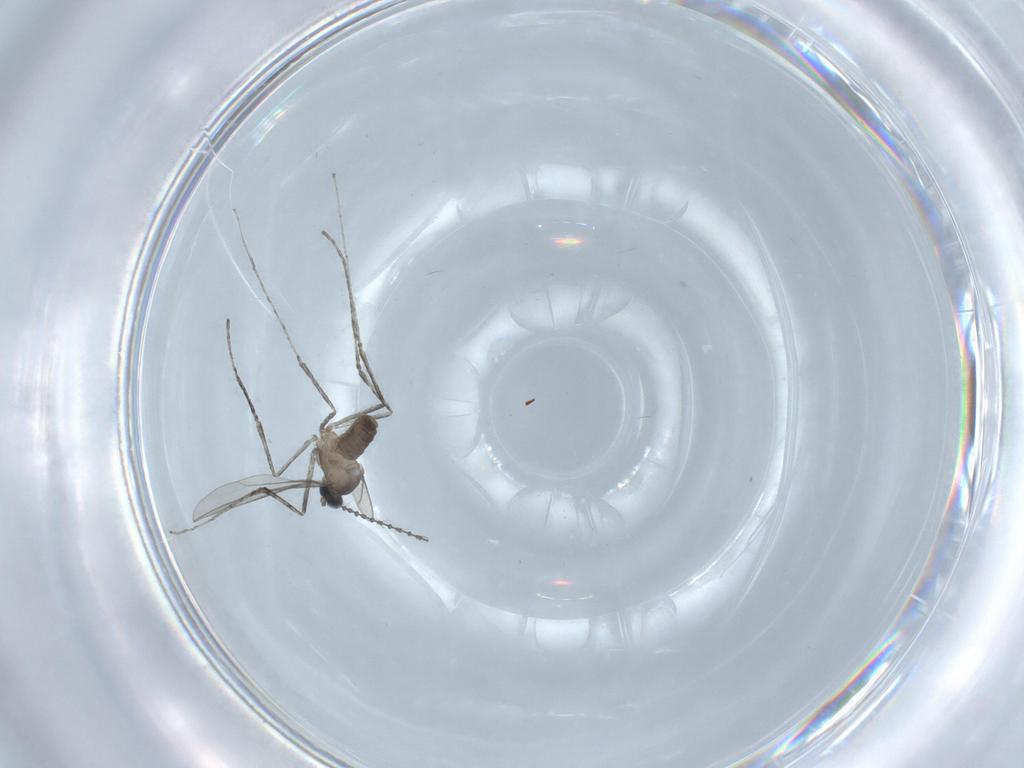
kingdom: Animalia
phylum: Arthropoda
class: Insecta
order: Diptera
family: Cecidomyiidae
